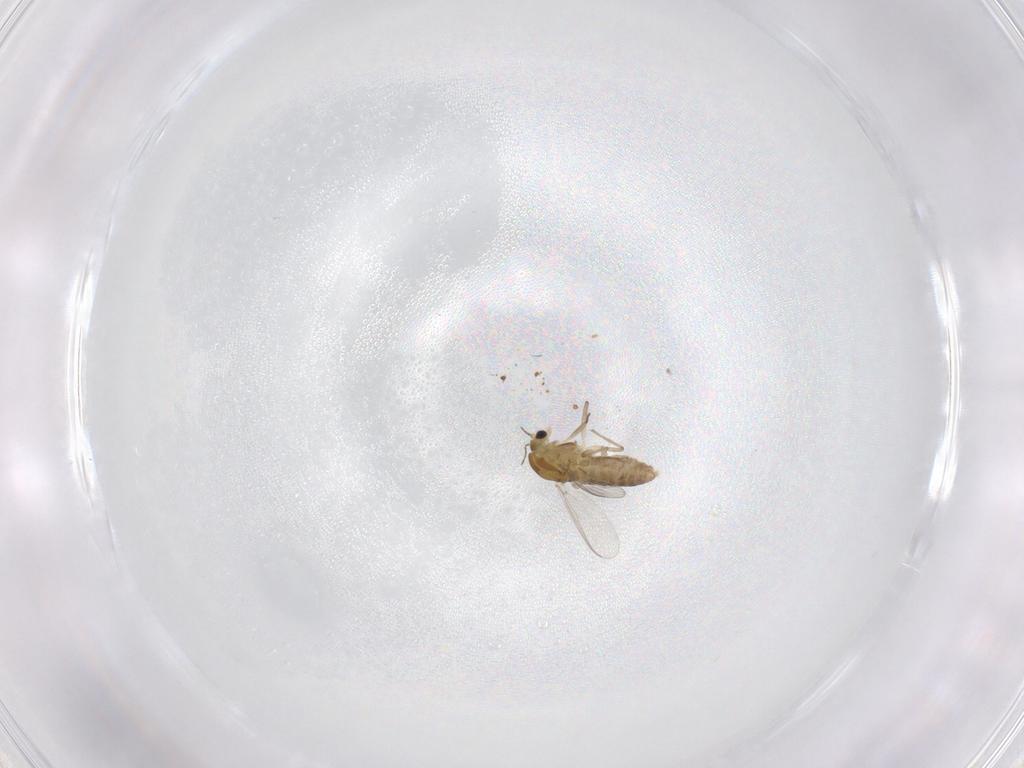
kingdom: Animalia
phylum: Arthropoda
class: Insecta
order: Diptera
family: Chironomidae
